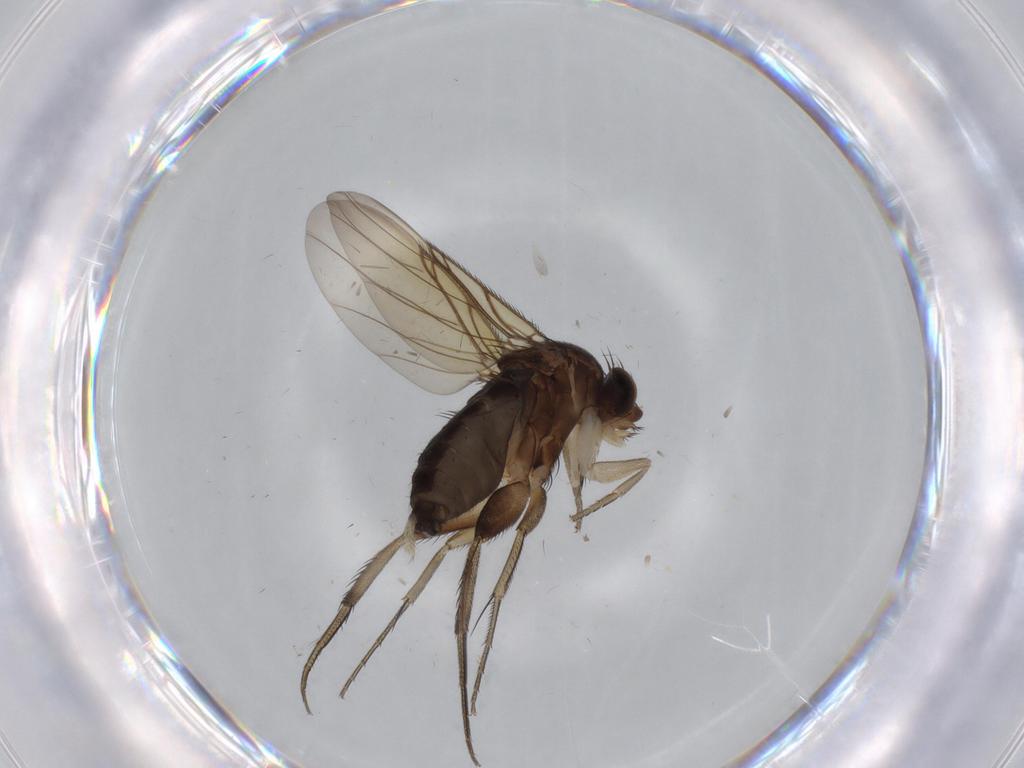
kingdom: Animalia
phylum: Arthropoda
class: Insecta
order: Diptera
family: Phoridae
